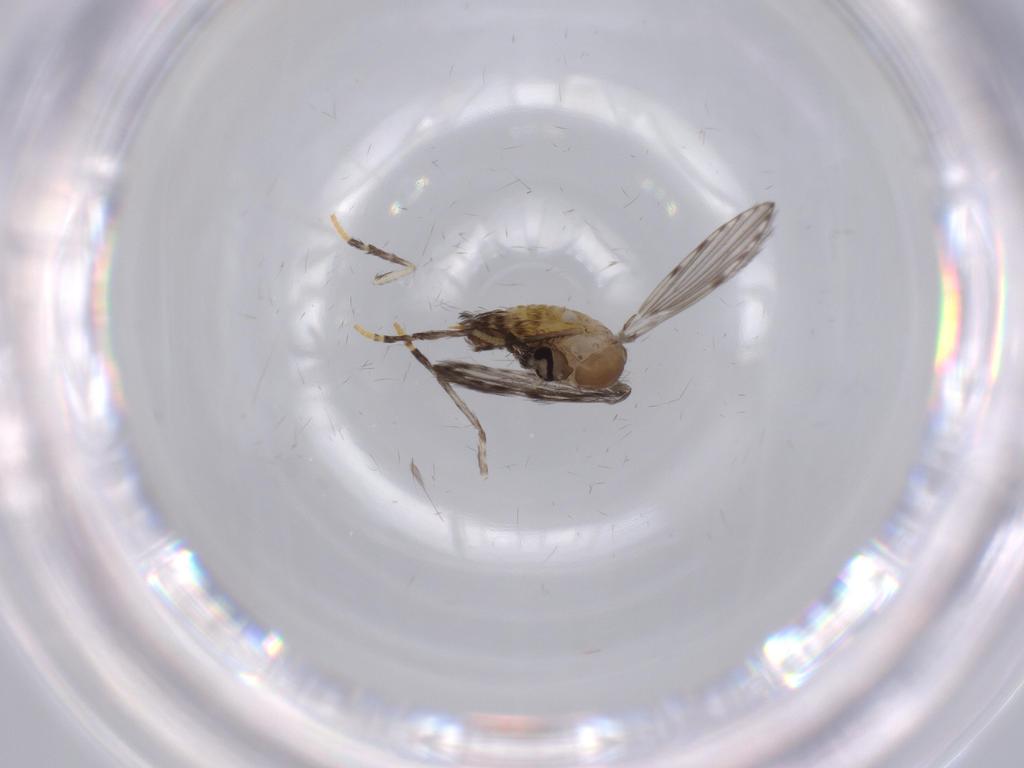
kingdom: Animalia
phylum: Arthropoda
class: Insecta
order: Diptera
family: Psychodidae
